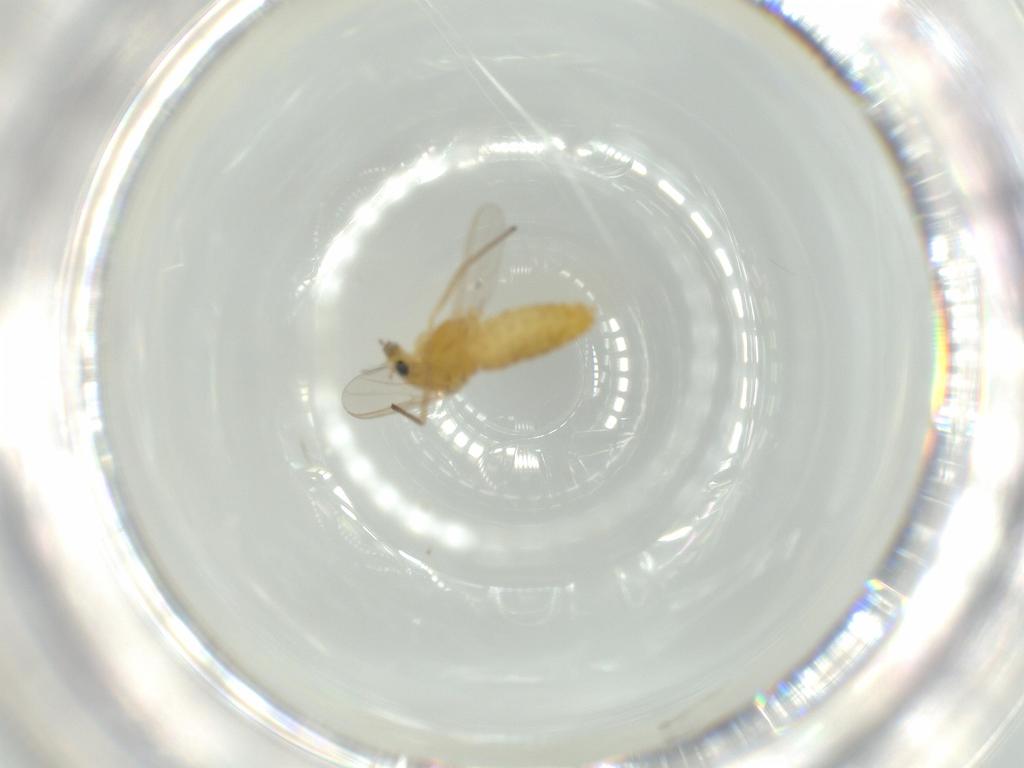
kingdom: Animalia
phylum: Arthropoda
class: Insecta
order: Diptera
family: Chironomidae
